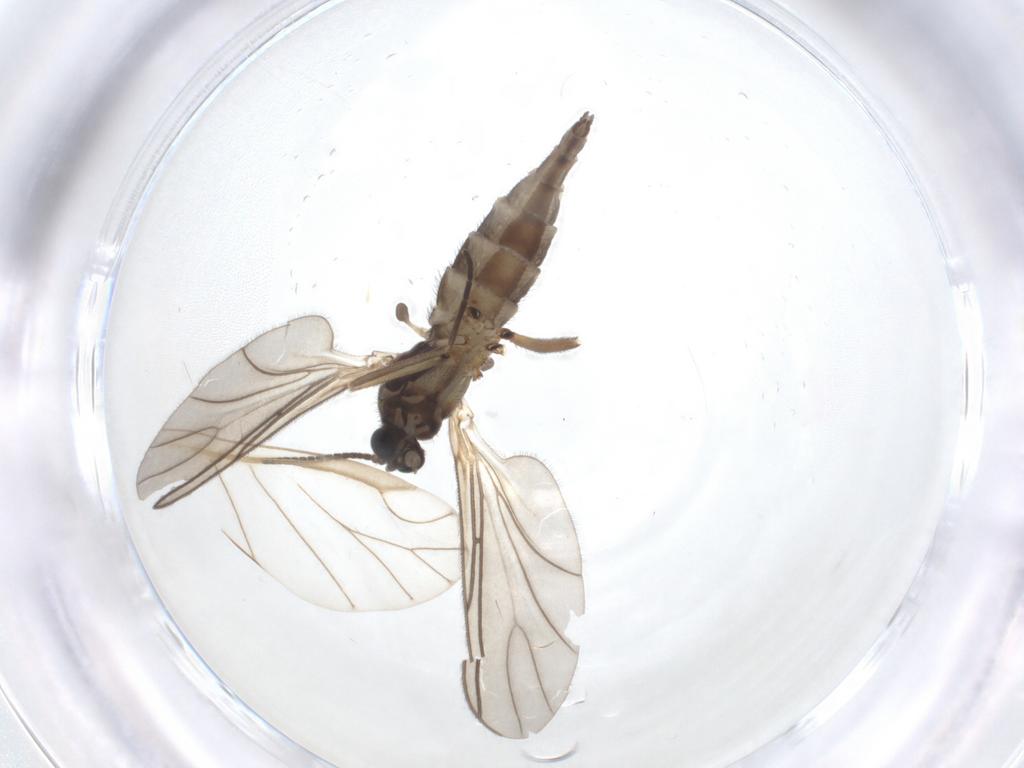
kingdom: Animalia
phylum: Arthropoda
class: Insecta
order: Diptera
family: Sciaridae
